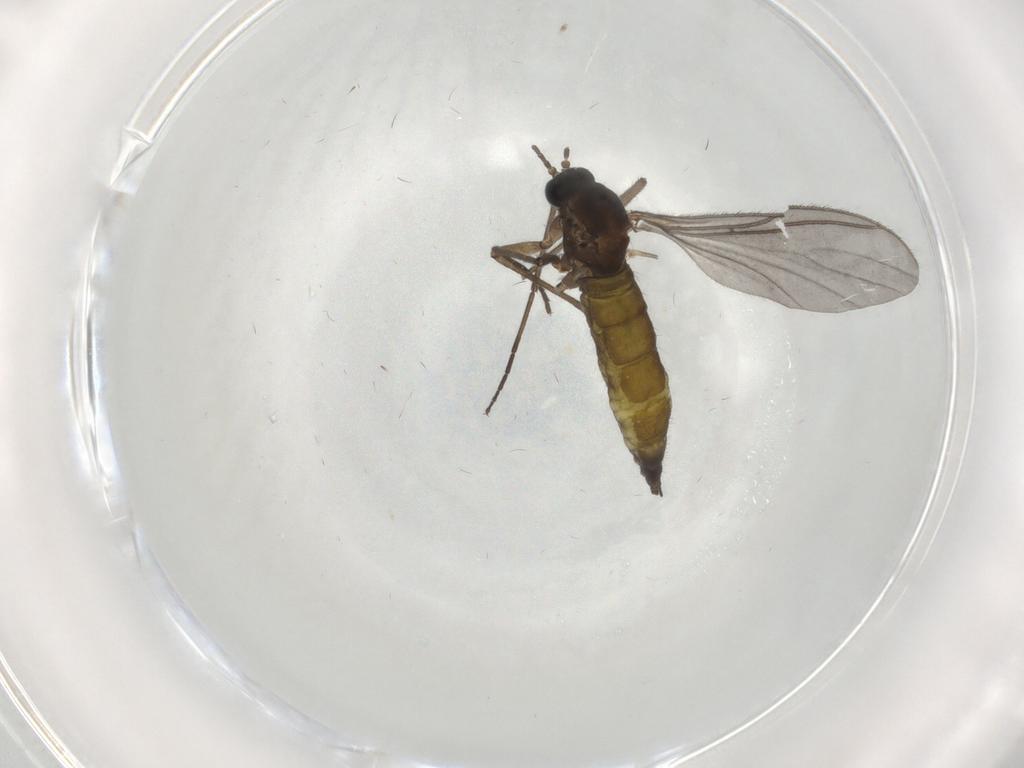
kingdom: Animalia
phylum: Arthropoda
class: Insecta
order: Diptera
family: Sciaridae
